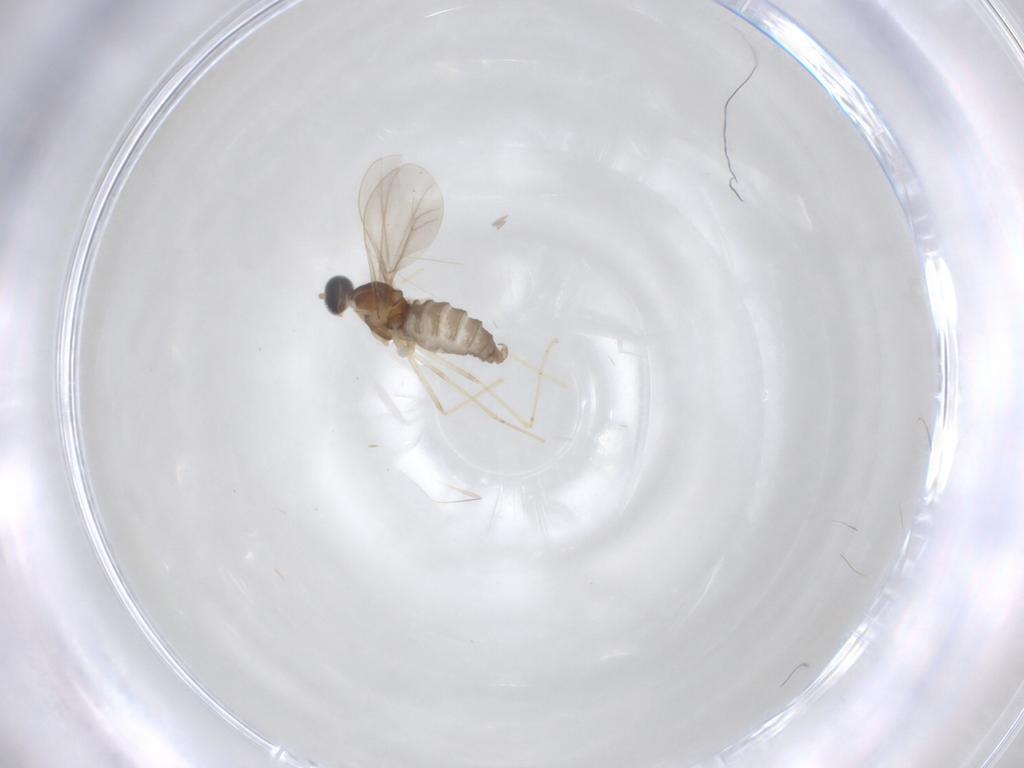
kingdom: Animalia
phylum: Arthropoda
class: Insecta
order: Diptera
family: Cecidomyiidae
